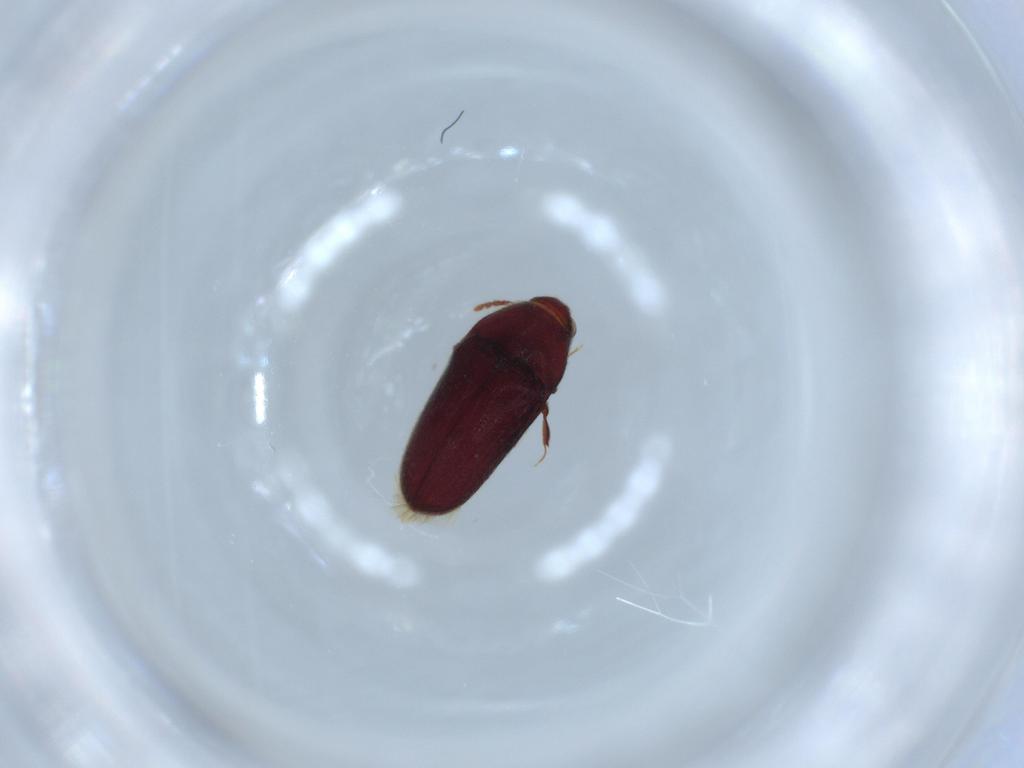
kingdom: Animalia
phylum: Arthropoda
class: Insecta
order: Coleoptera
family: Throscidae
